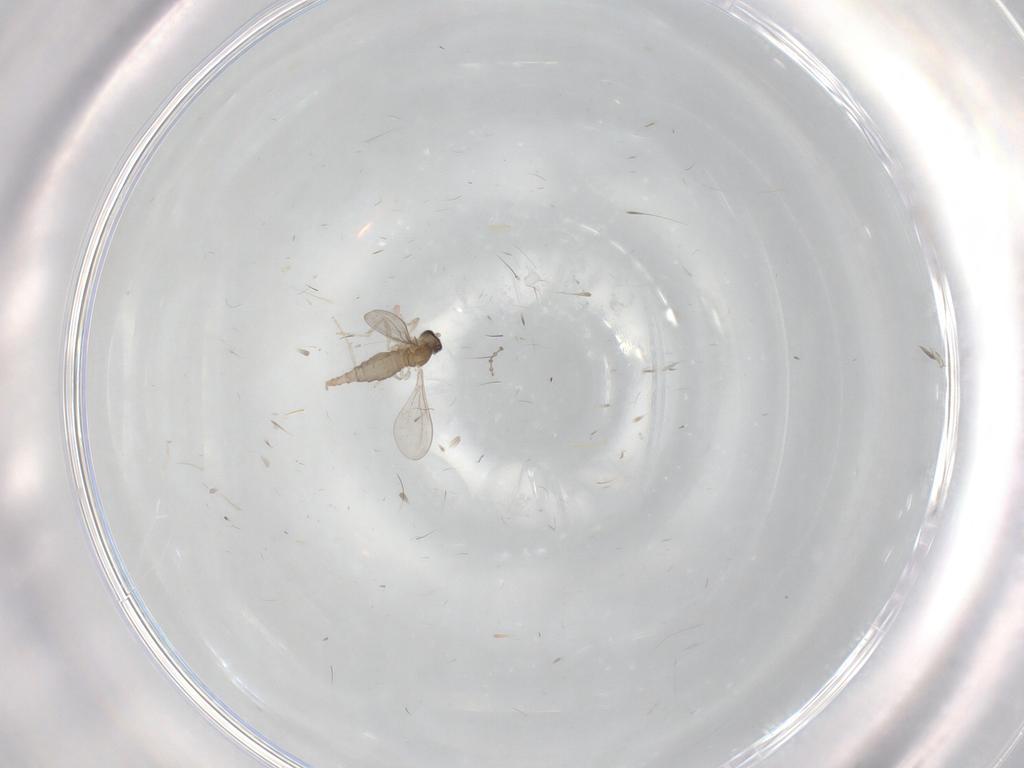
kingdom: Animalia
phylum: Arthropoda
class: Insecta
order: Diptera
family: Cecidomyiidae
